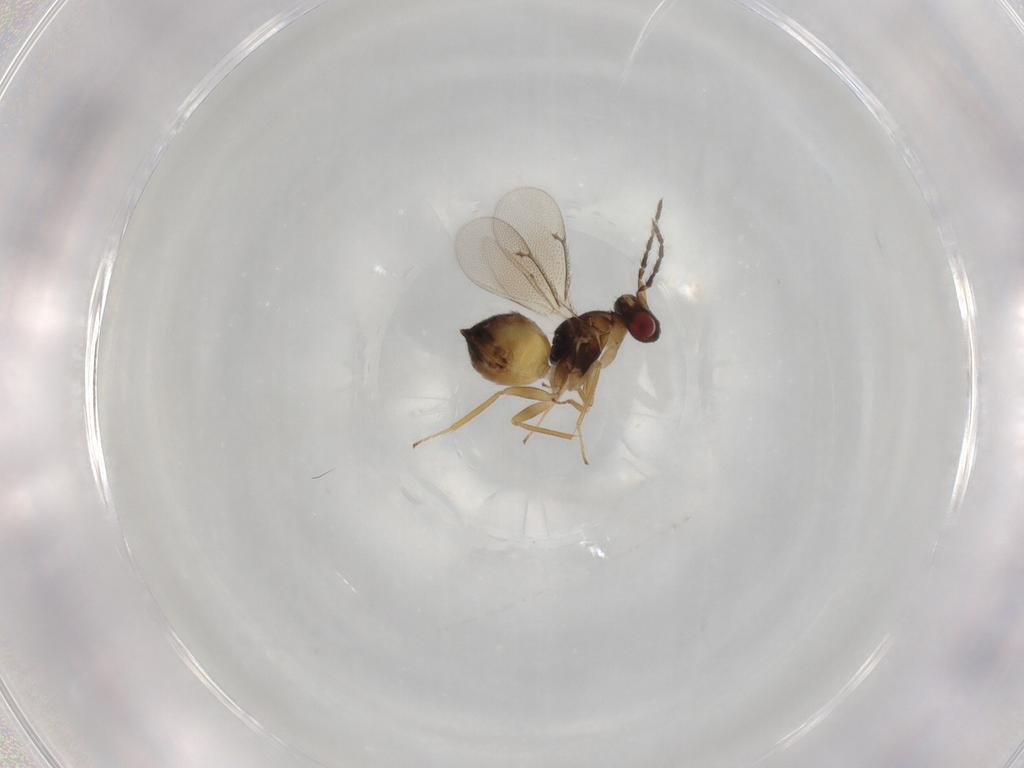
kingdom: Animalia
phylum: Arthropoda
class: Insecta
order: Hymenoptera
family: Eulophidae
